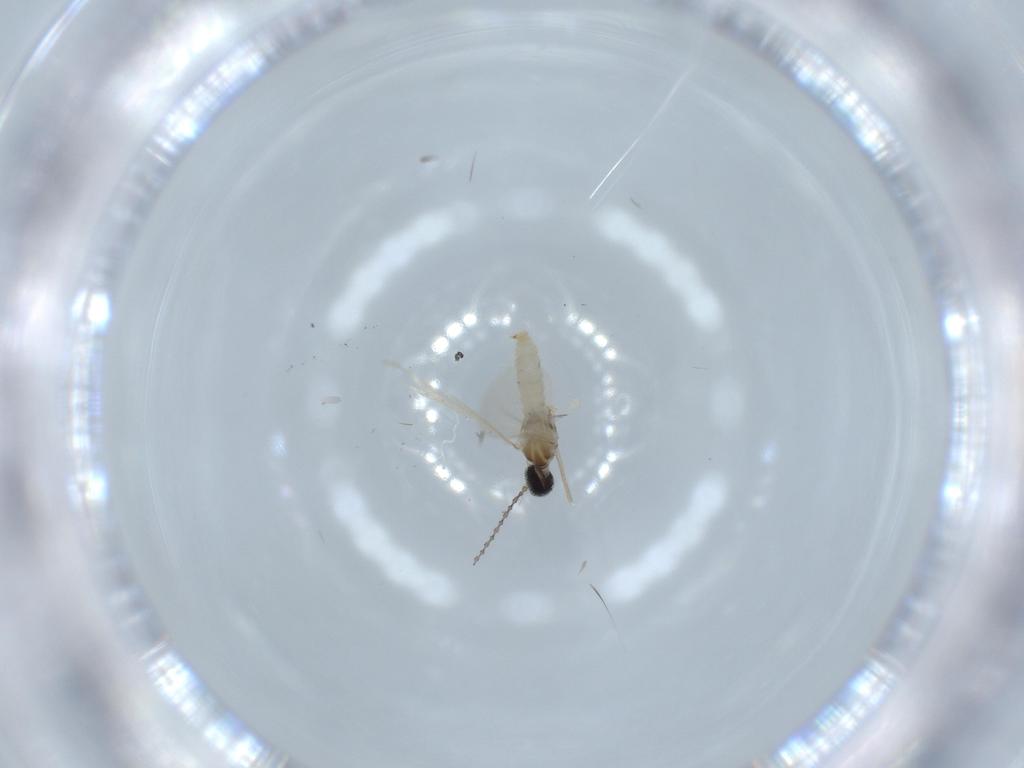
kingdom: Animalia
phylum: Arthropoda
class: Insecta
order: Diptera
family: Cecidomyiidae
